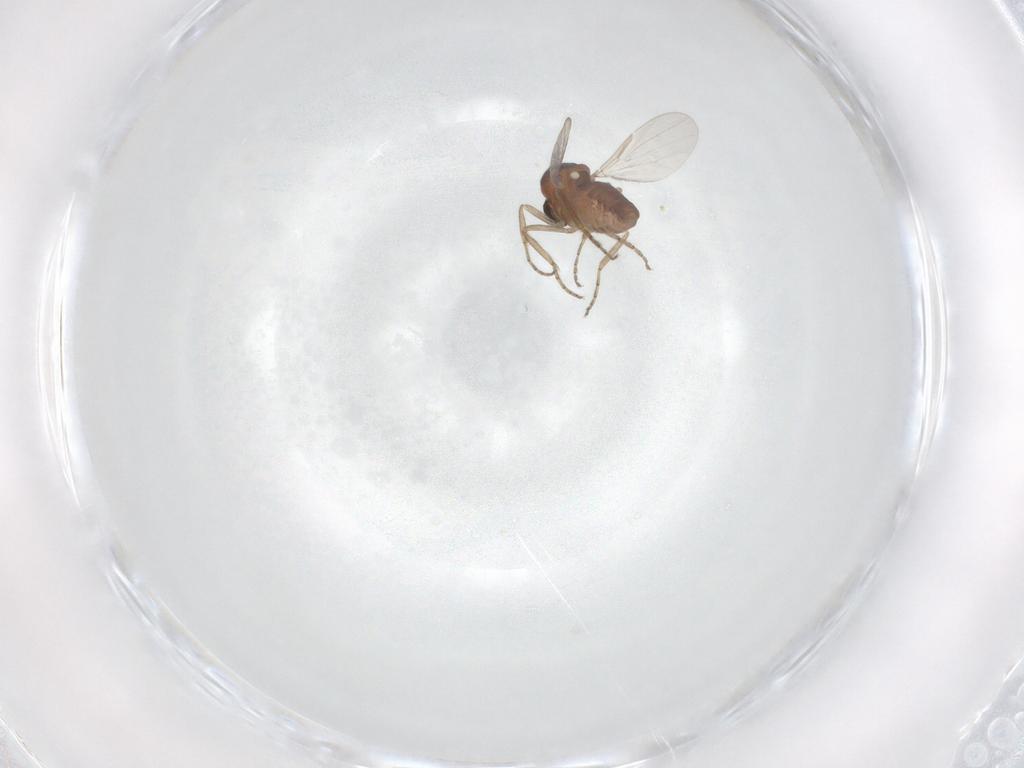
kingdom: Animalia
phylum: Arthropoda
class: Insecta
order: Diptera
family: Ceratopogonidae
